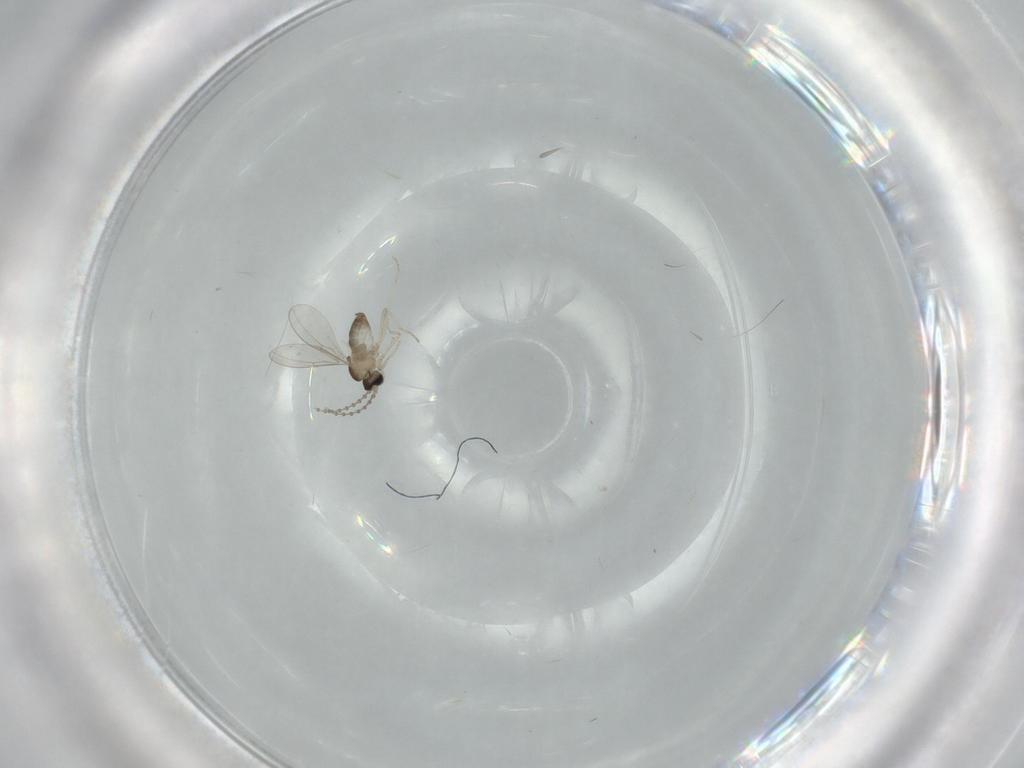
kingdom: Animalia
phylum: Arthropoda
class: Insecta
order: Diptera
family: Cecidomyiidae
